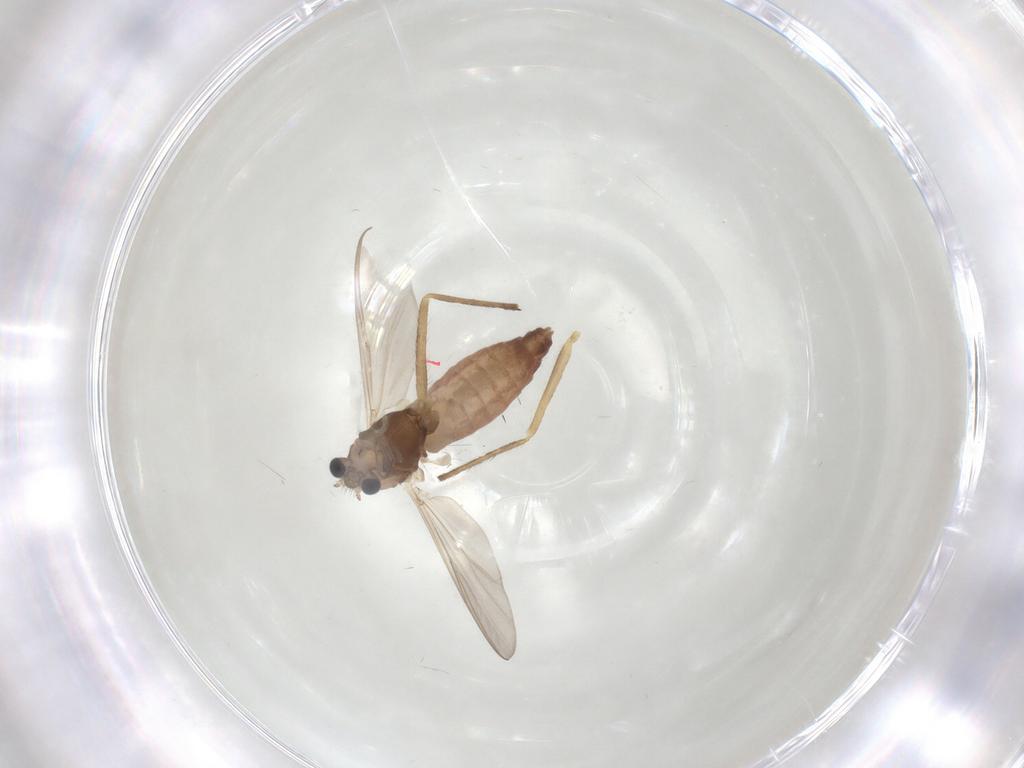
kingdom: Animalia
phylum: Arthropoda
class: Insecta
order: Diptera
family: Chironomidae
